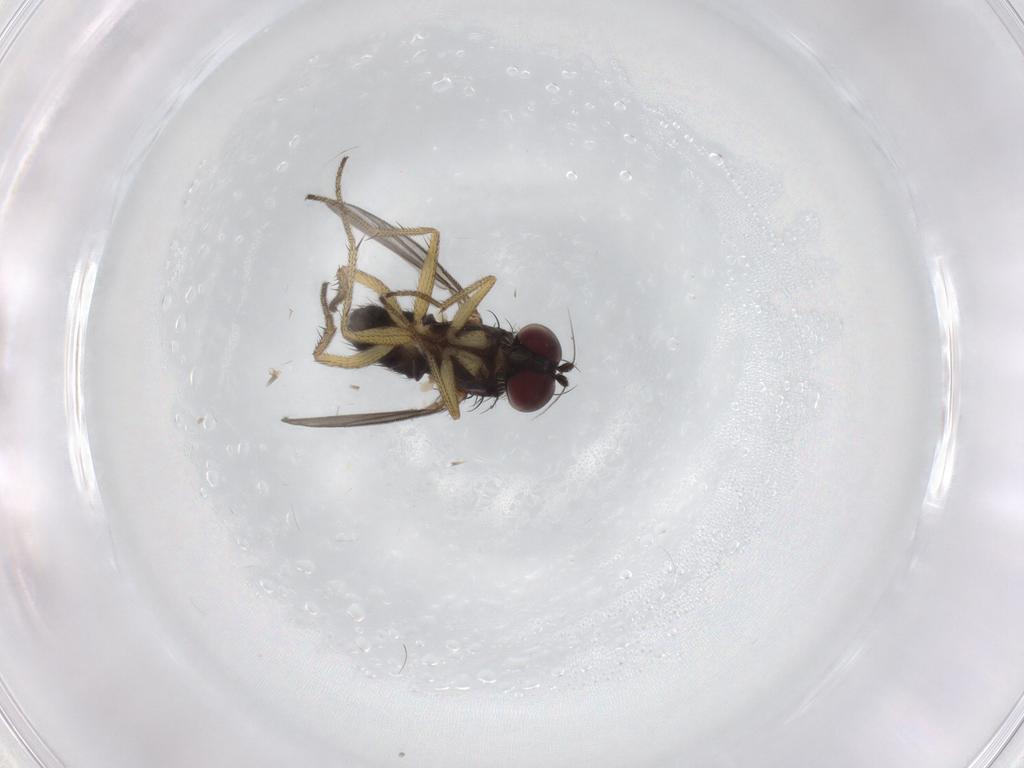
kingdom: Animalia
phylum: Arthropoda
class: Insecta
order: Diptera
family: Dolichopodidae
